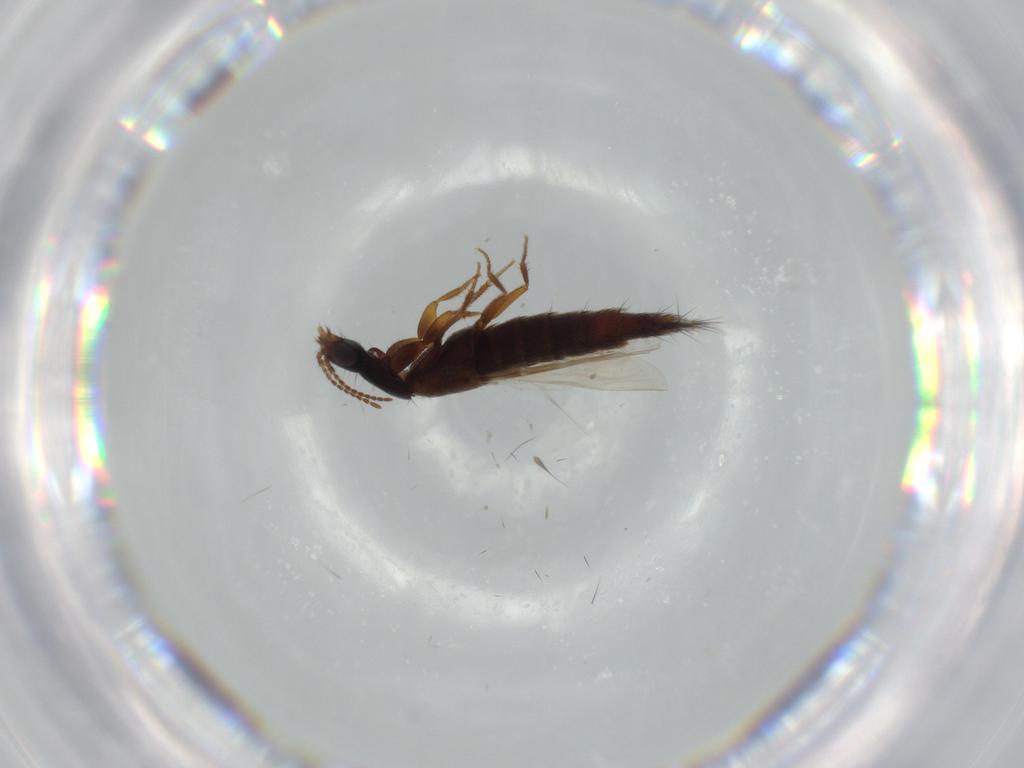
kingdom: Animalia
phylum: Arthropoda
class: Insecta
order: Coleoptera
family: Staphylinidae
